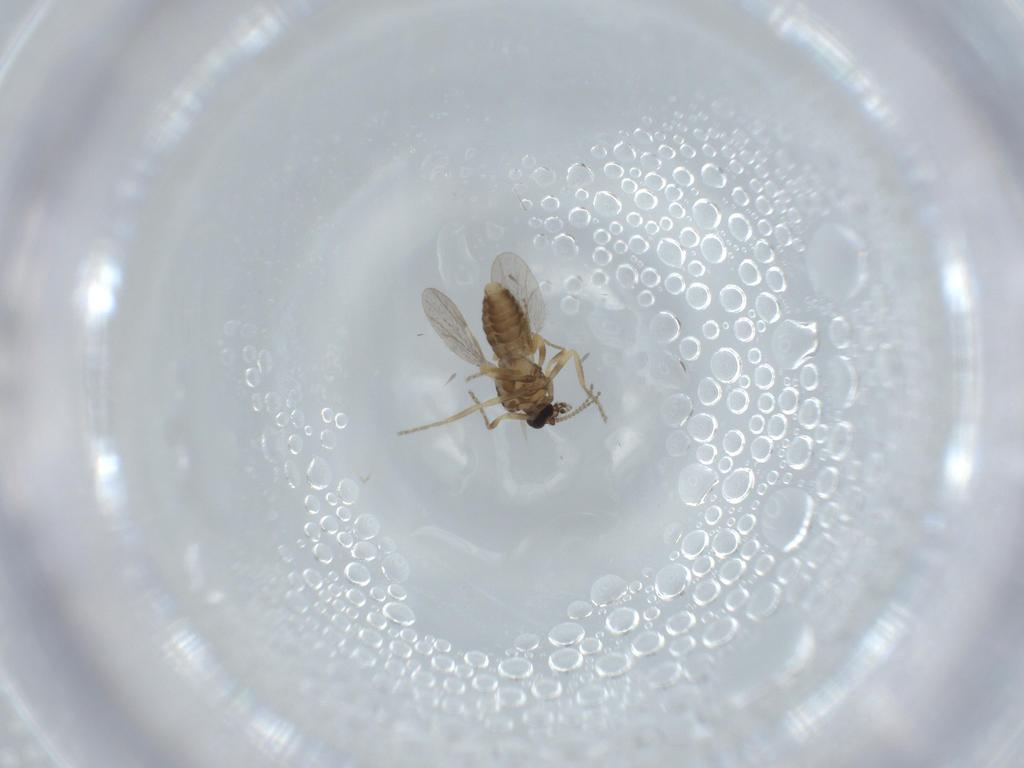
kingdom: Animalia
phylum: Arthropoda
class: Insecta
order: Diptera
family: Ceratopogonidae
